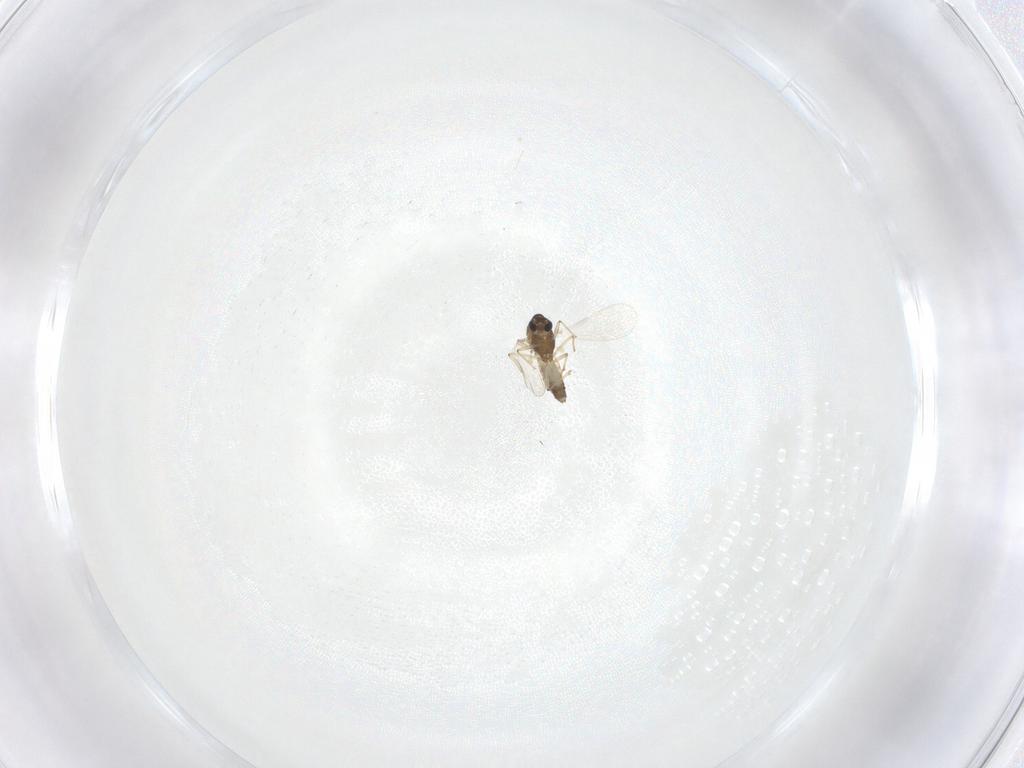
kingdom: Animalia
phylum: Arthropoda
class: Insecta
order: Diptera
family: Chironomidae
